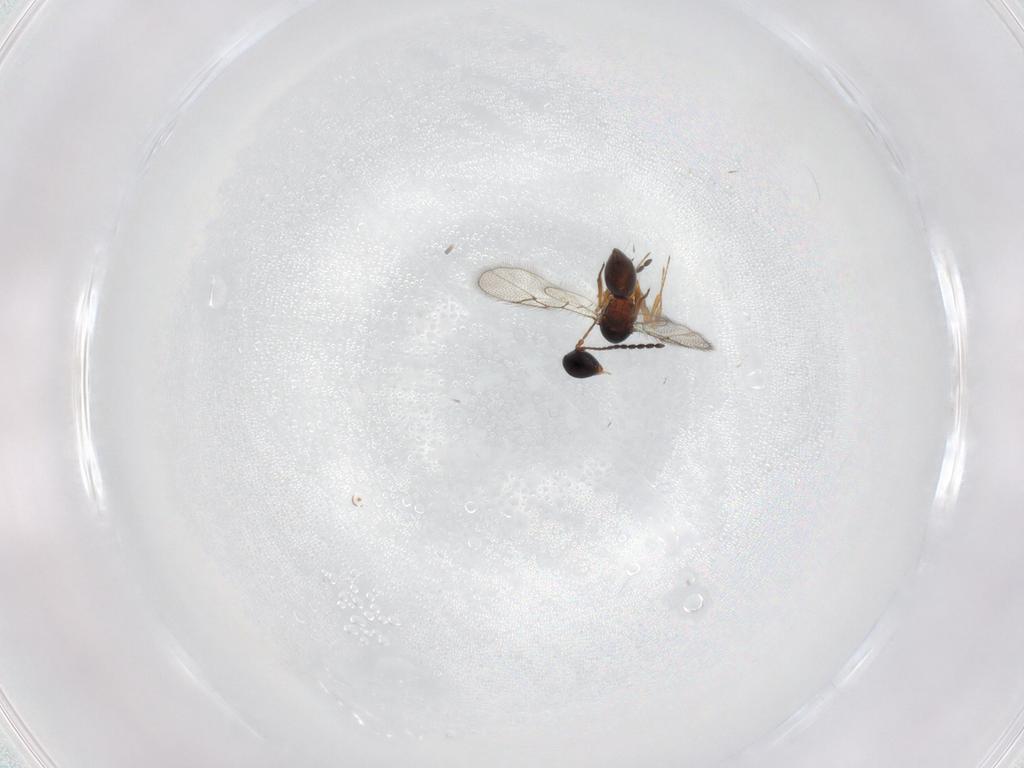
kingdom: Animalia
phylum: Arthropoda
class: Insecta
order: Hymenoptera
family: Figitidae
